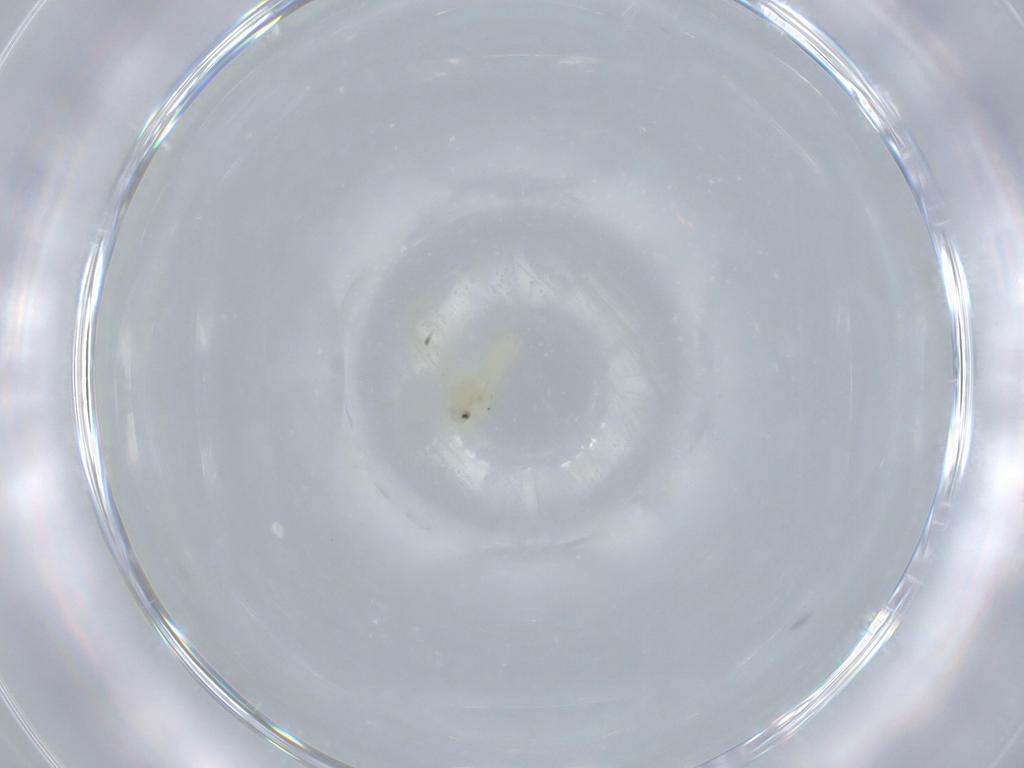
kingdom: Animalia
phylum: Arthropoda
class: Insecta
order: Hemiptera
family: Aleyrodidae
